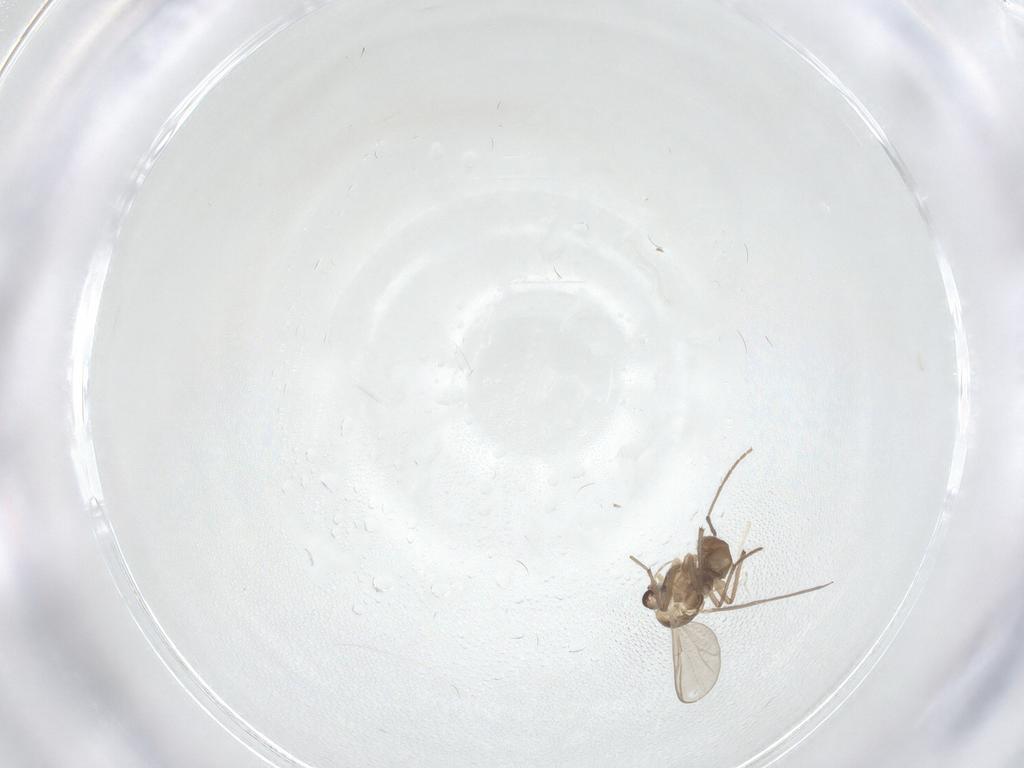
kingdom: Animalia
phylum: Arthropoda
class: Insecta
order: Diptera
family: Chironomidae
